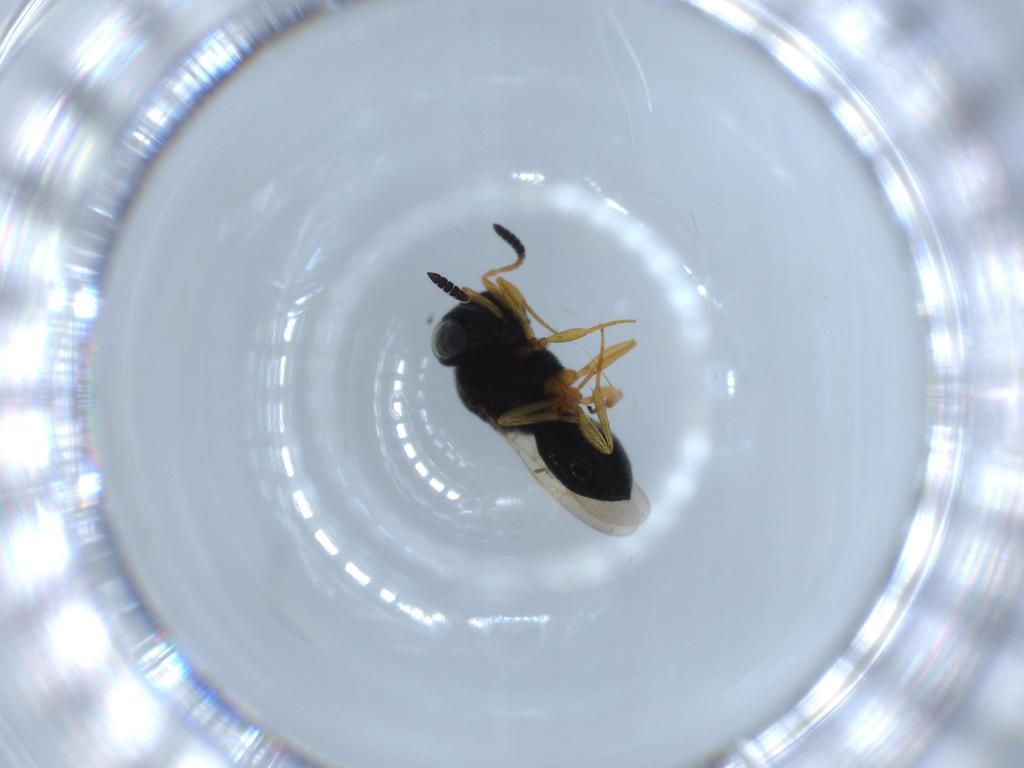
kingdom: Animalia
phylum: Arthropoda
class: Insecta
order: Hymenoptera
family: Scelionidae
